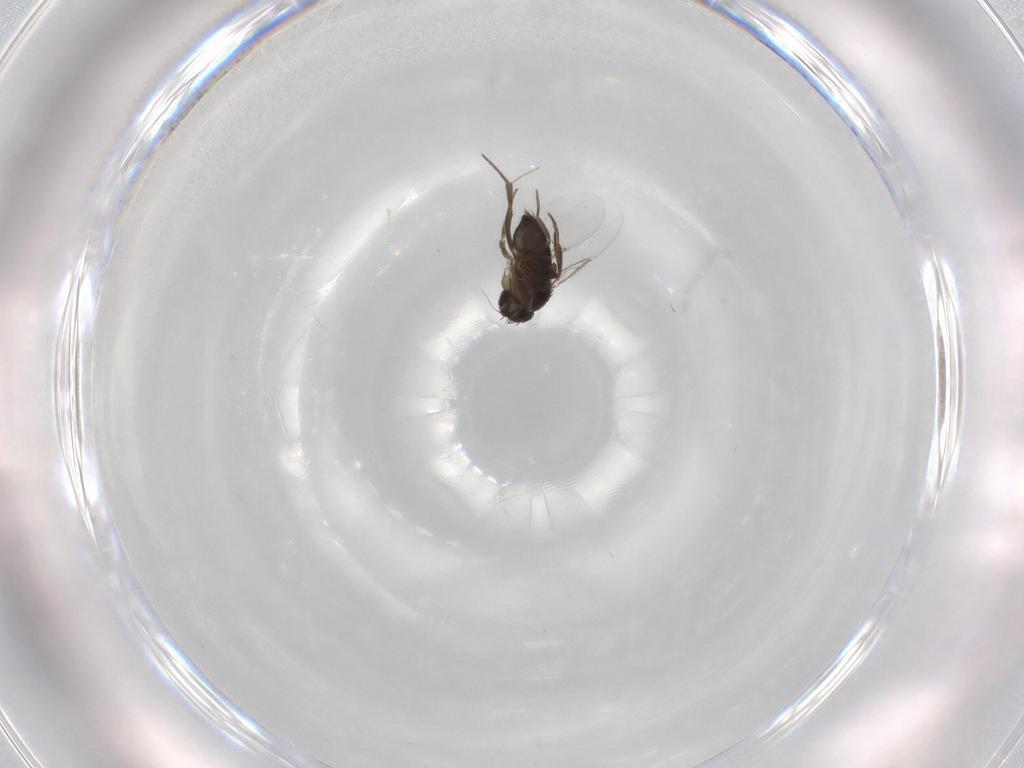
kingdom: Animalia
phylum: Arthropoda
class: Insecta
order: Diptera
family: Phoridae
